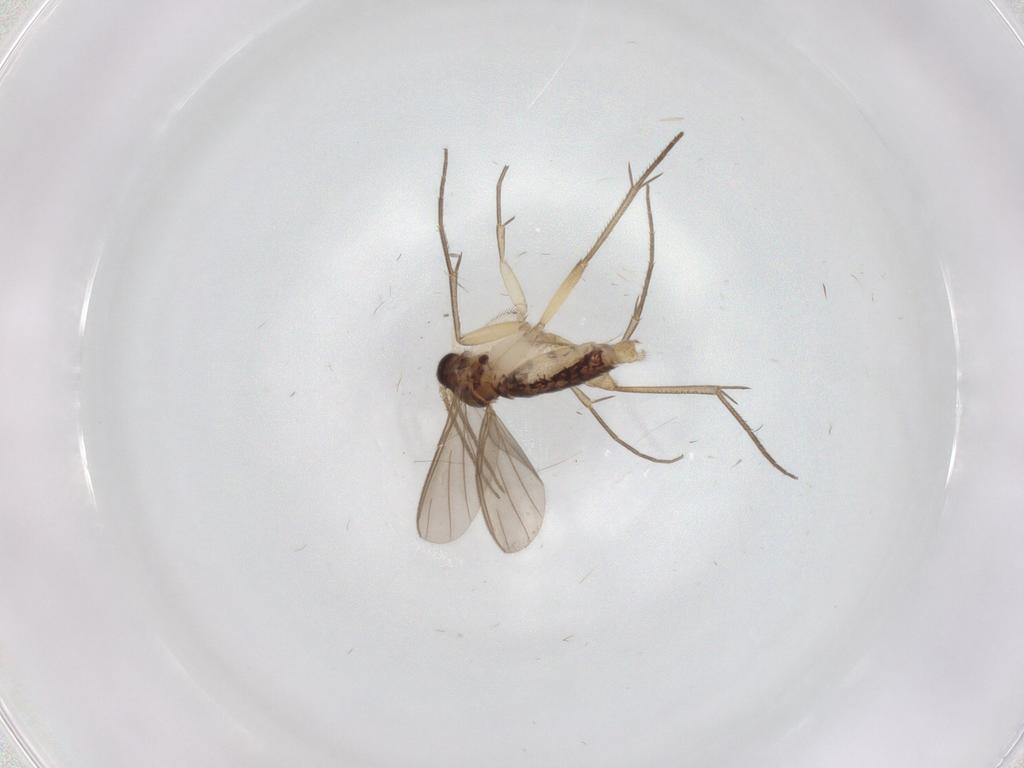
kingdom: Animalia
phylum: Arthropoda
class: Insecta
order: Diptera
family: Mycetophilidae
